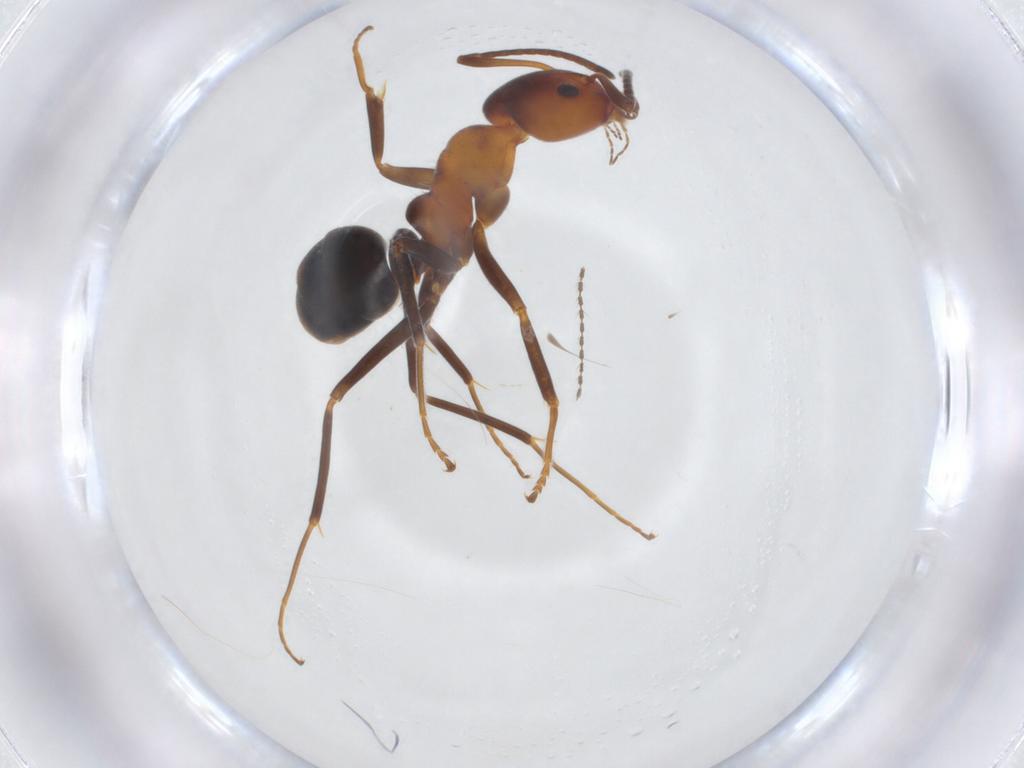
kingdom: Animalia
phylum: Arthropoda
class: Insecta
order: Hymenoptera
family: Formicidae
